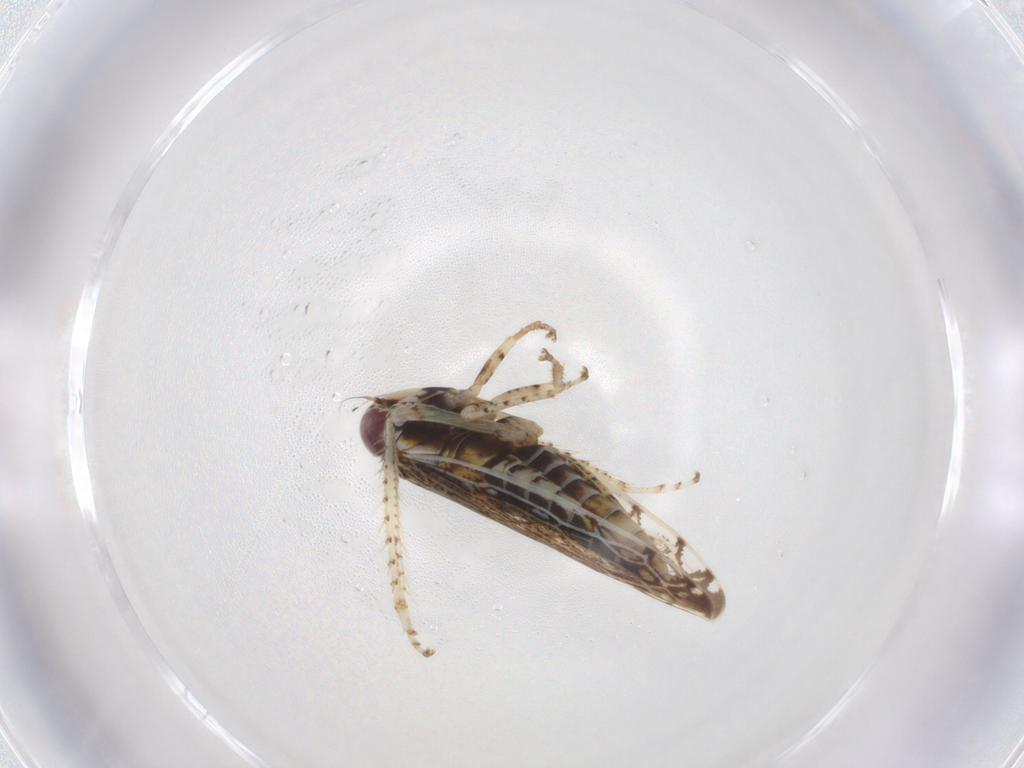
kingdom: Animalia
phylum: Arthropoda
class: Insecta
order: Hemiptera
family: Cicadellidae
